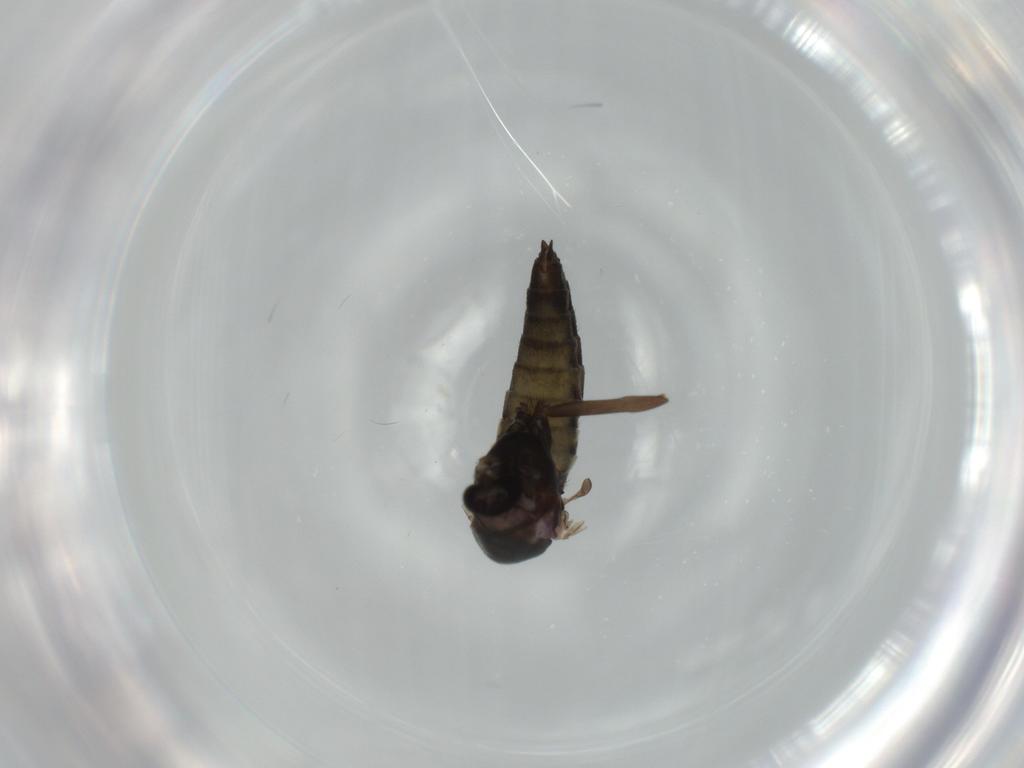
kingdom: Animalia
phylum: Arthropoda
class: Insecta
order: Diptera
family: Chironomidae
